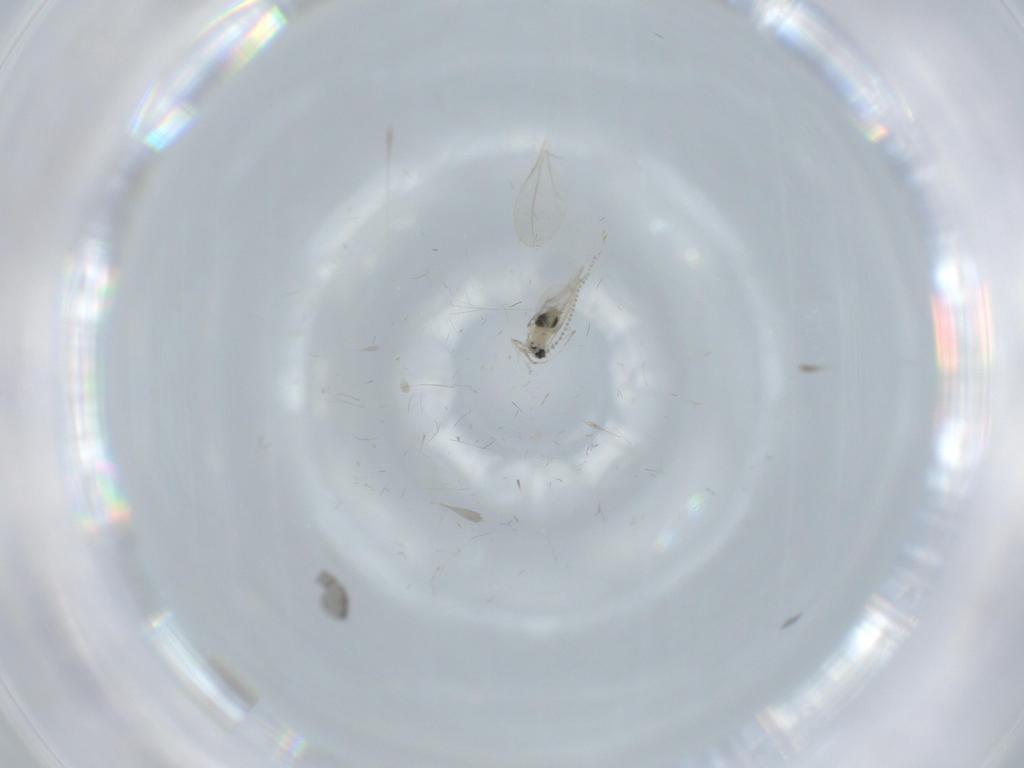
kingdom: Animalia
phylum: Arthropoda
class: Insecta
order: Diptera
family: Cecidomyiidae
